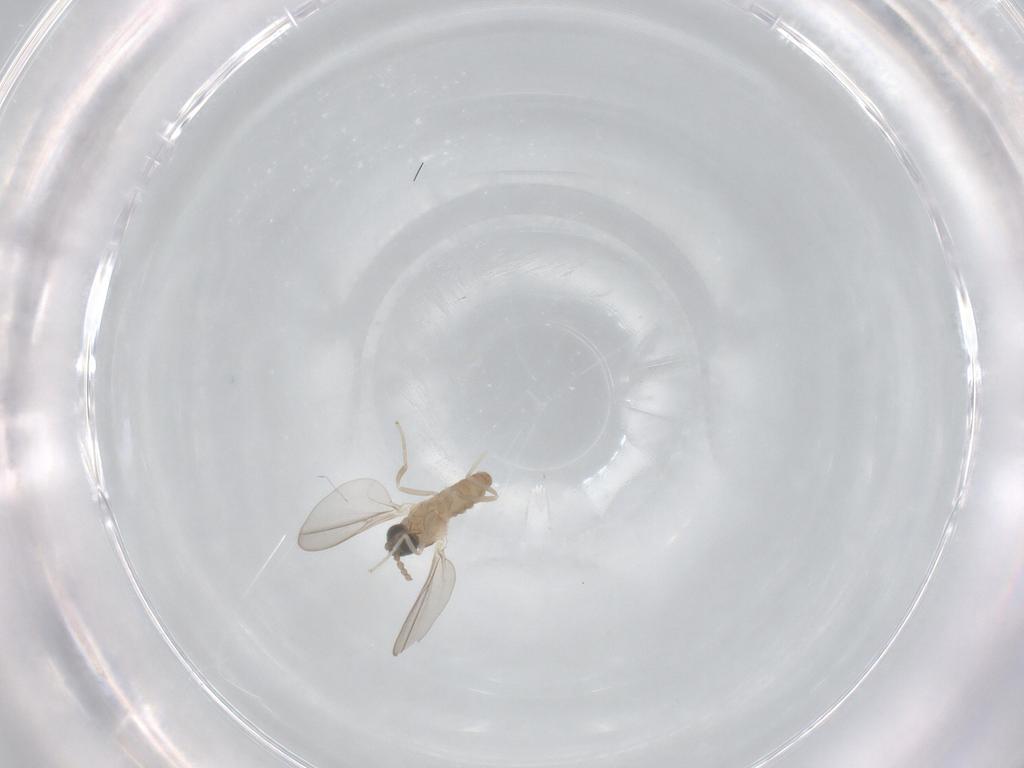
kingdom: Animalia
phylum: Arthropoda
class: Insecta
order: Diptera
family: Cecidomyiidae
